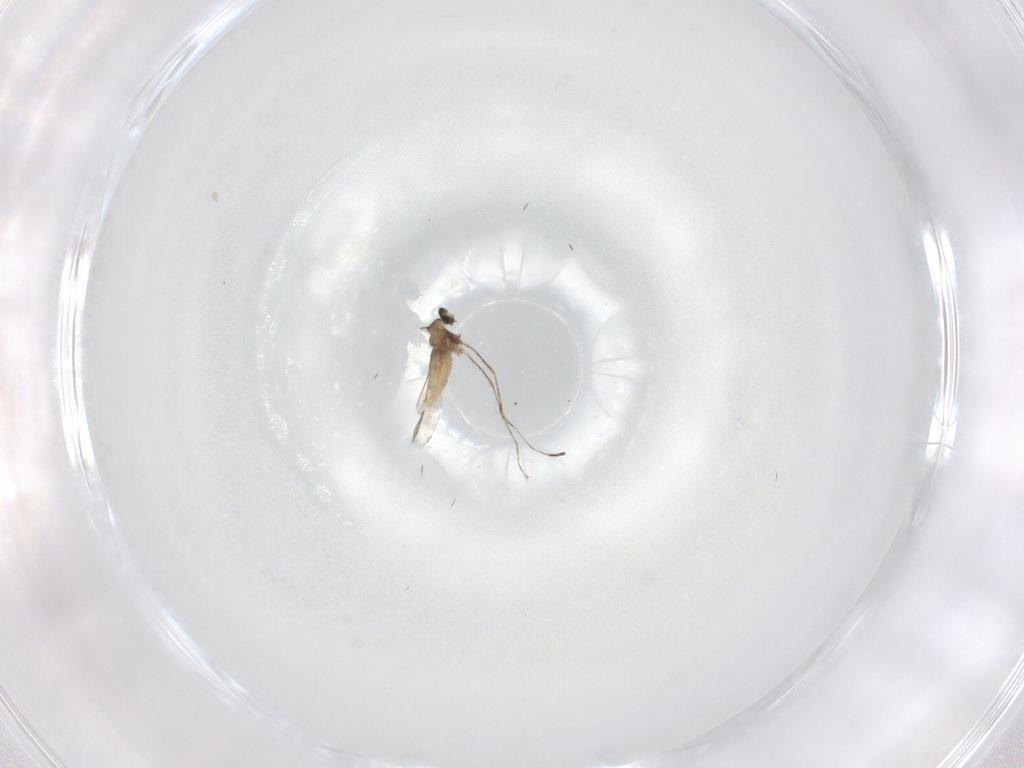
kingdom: Animalia
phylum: Arthropoda
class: Insecta
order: Diptera
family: Cecidomyiidae
